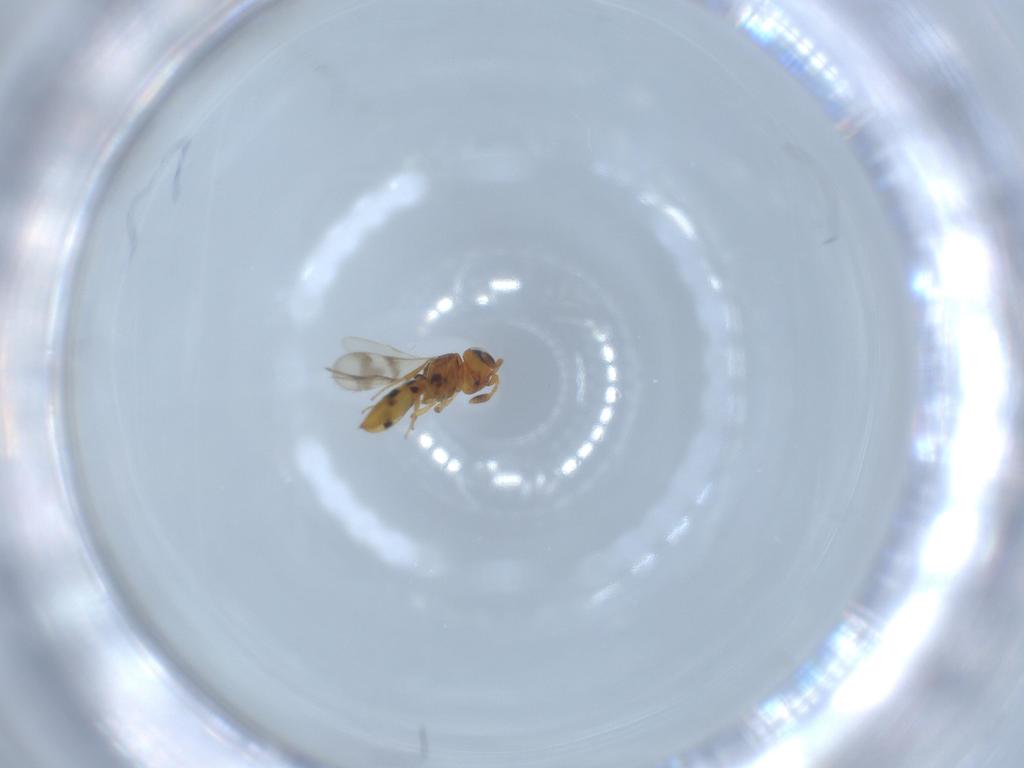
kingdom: Animalia
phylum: Arthropoda
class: Insecta
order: Hymenoptera
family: Scelionidae
